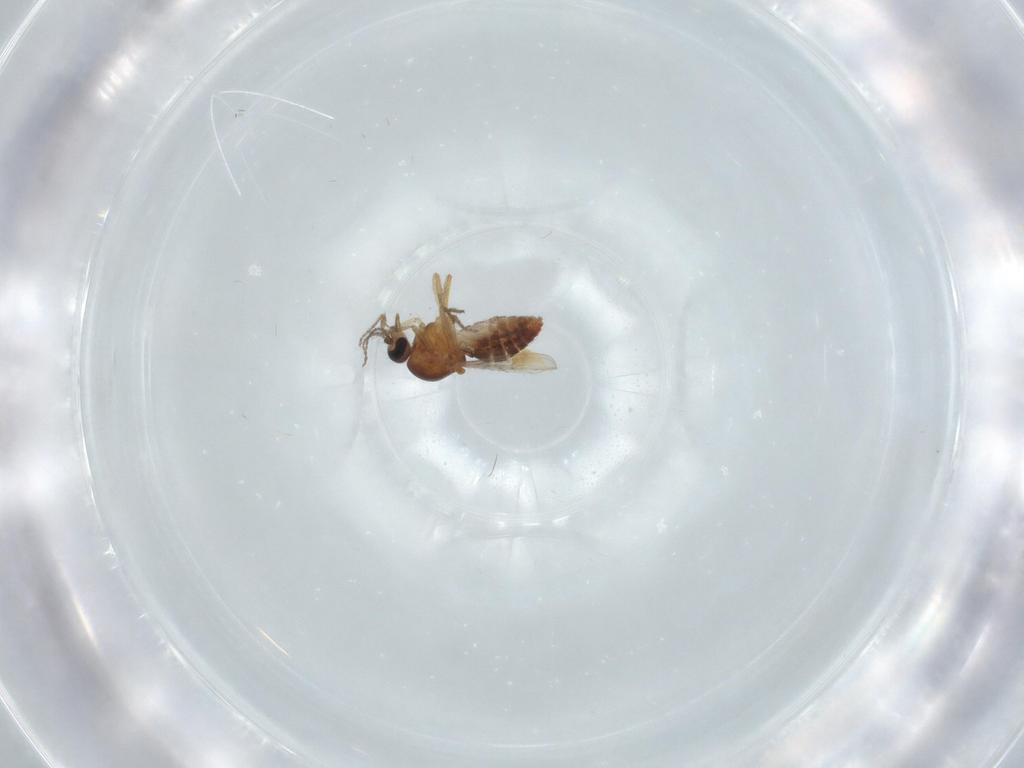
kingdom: Animalia
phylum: Arthropoda
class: Insecta
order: Diptera
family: Ceratopogonidae
